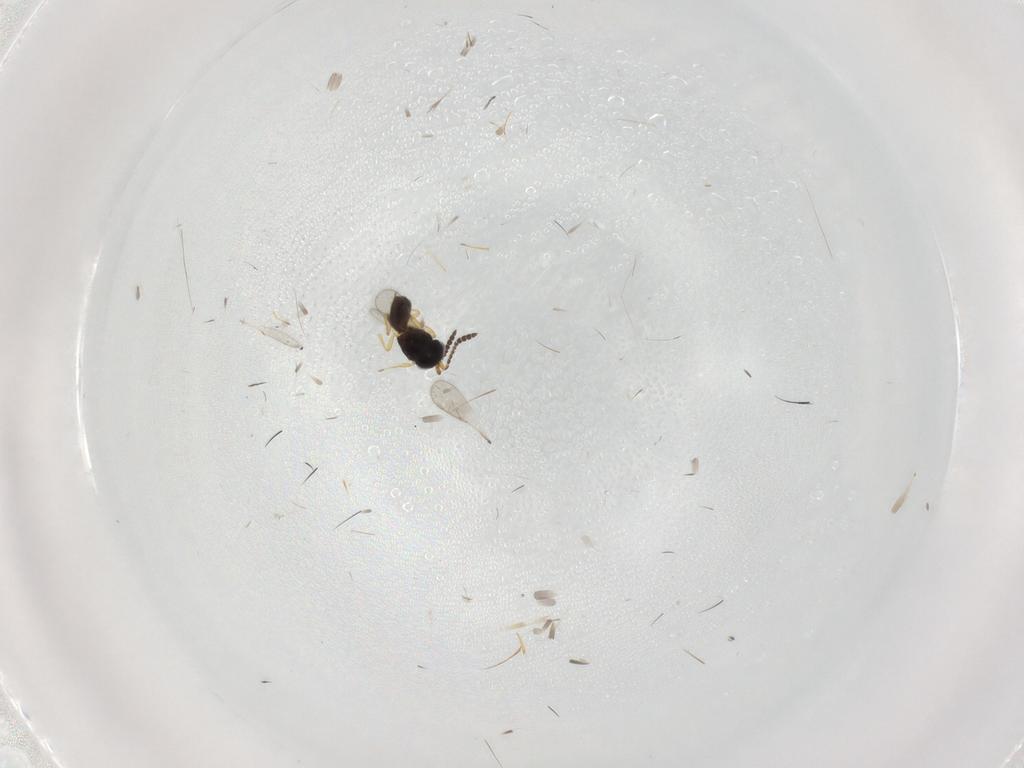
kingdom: Animalia
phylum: Arthropoda
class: Insecta
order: Hymenoptera
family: Scelionidae
